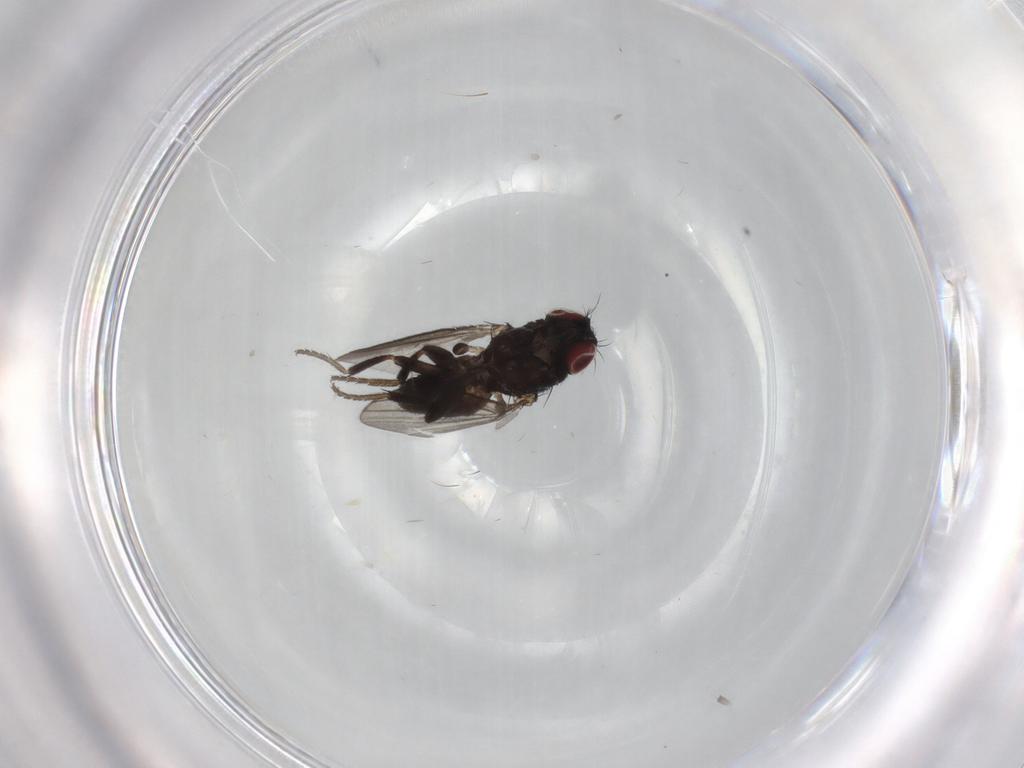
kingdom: Animalia
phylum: Arthropoda
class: Insecta
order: Diptera
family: Milichiidae
